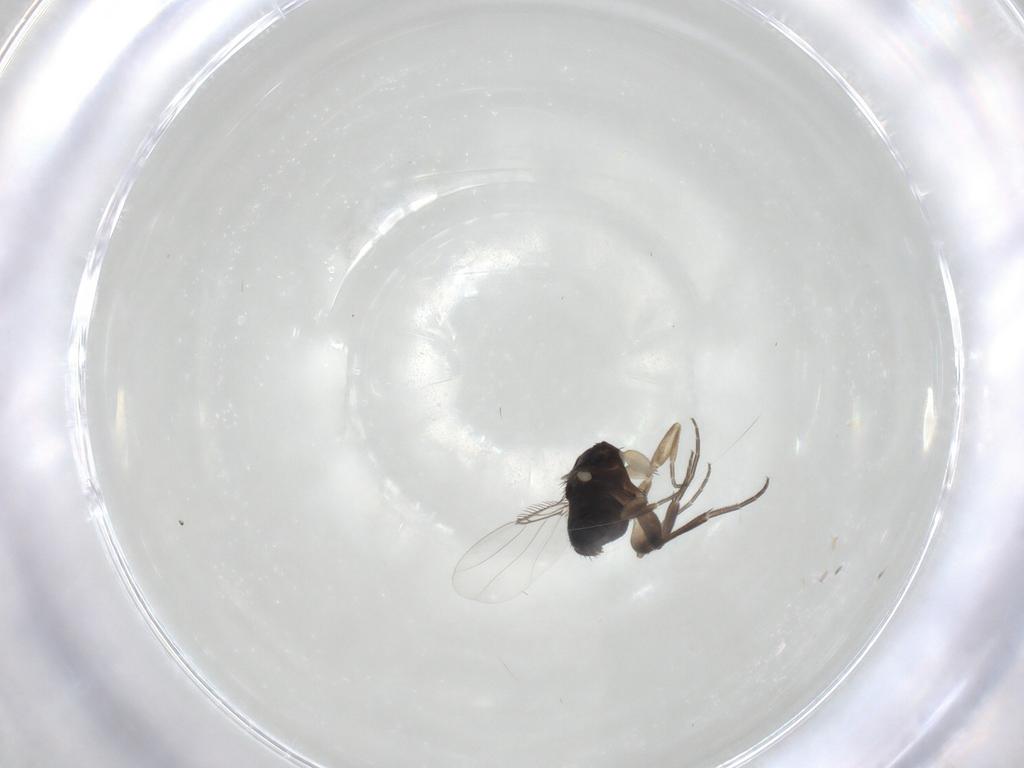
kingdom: Animalia
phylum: Arthropoda
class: Insecta
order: Diptera
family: Phoridae
